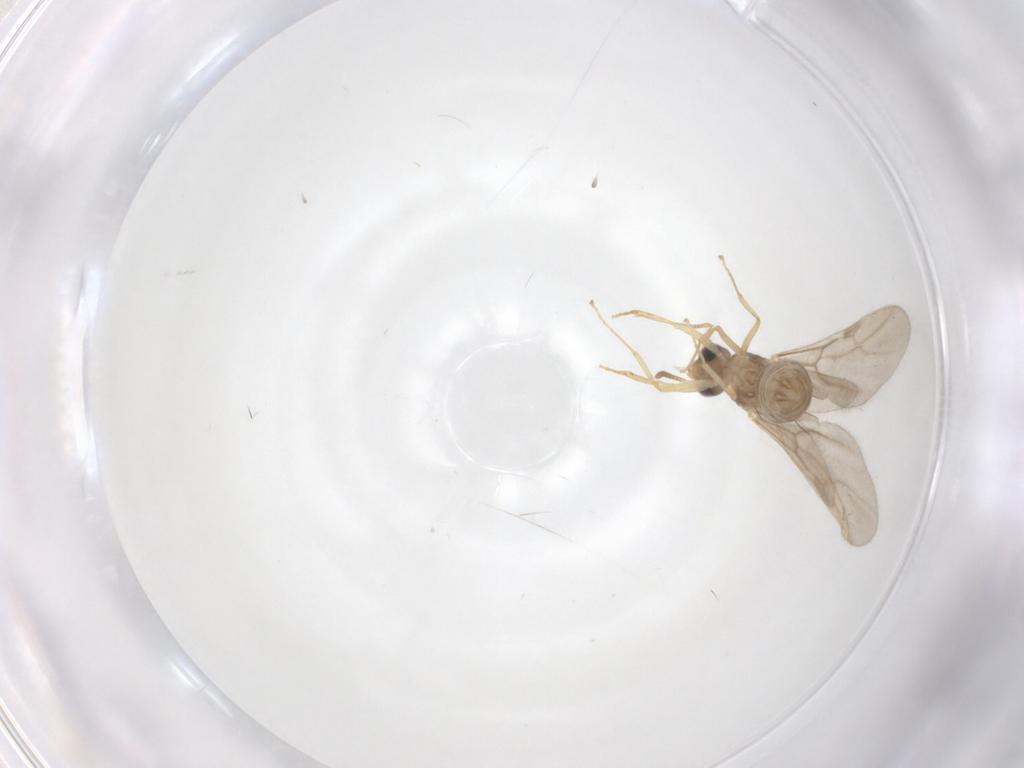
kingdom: Animalia
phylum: Arthropoda
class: Insecta
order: Hymenoptera
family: Formicidae
